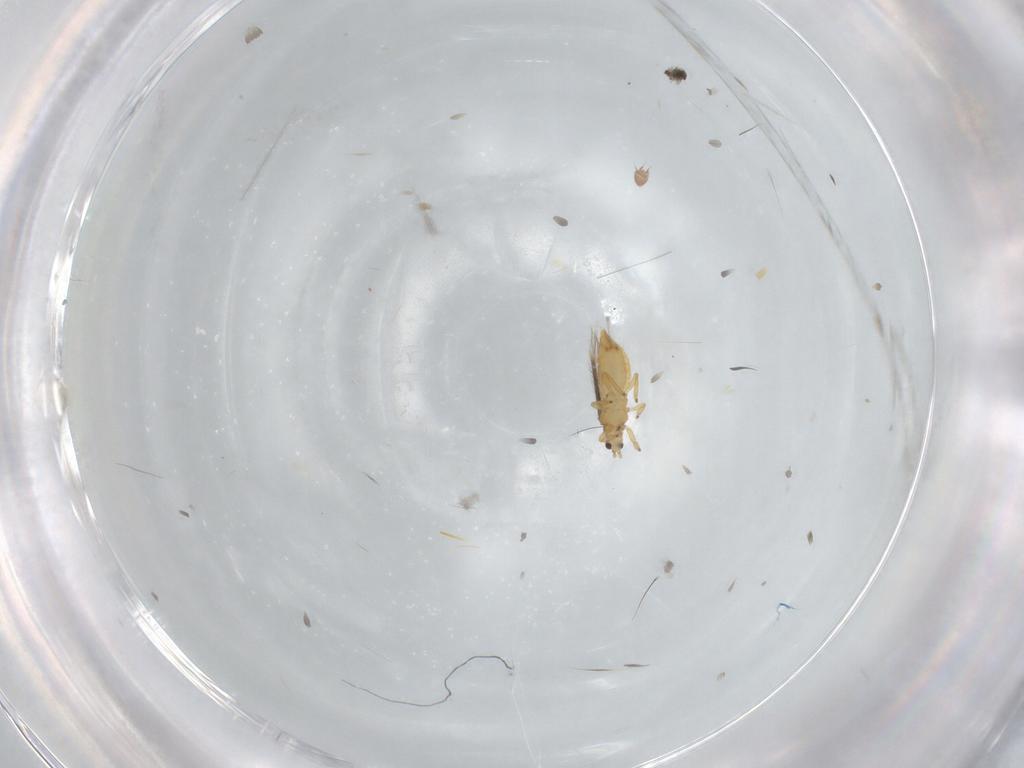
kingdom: Animalia
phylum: Arthropoda
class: Insecta
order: Thysanoptera
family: Thripidae
